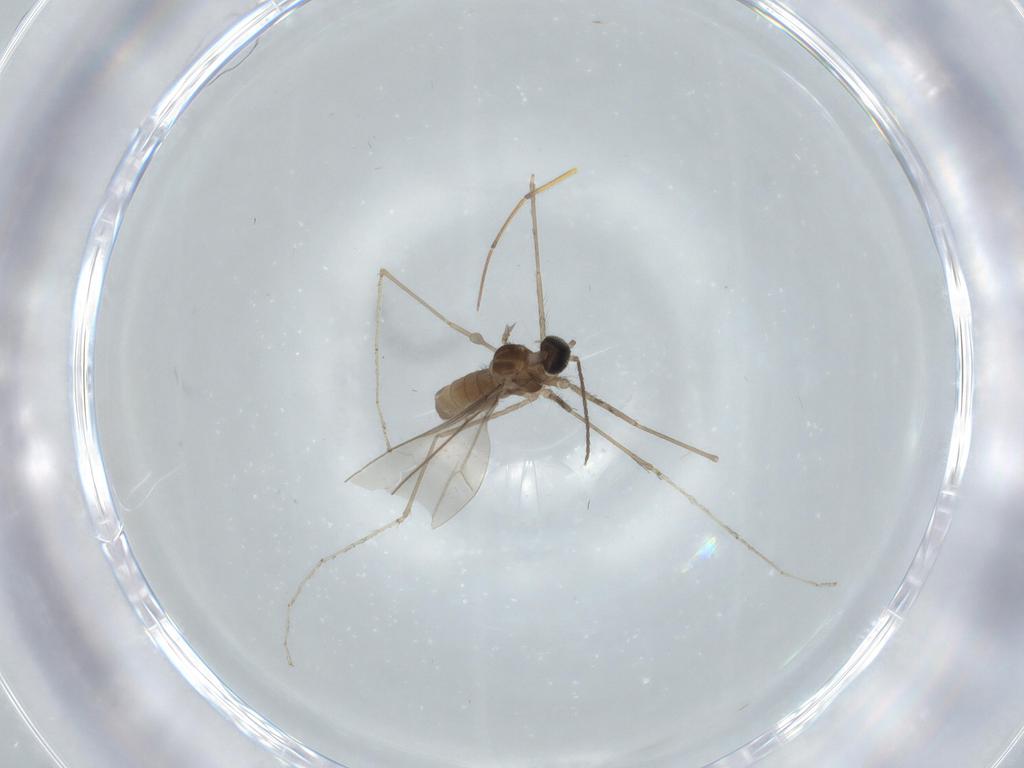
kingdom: Animalia
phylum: Arthropoda
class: Insecta
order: Diptera
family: Cecidomyiidae
